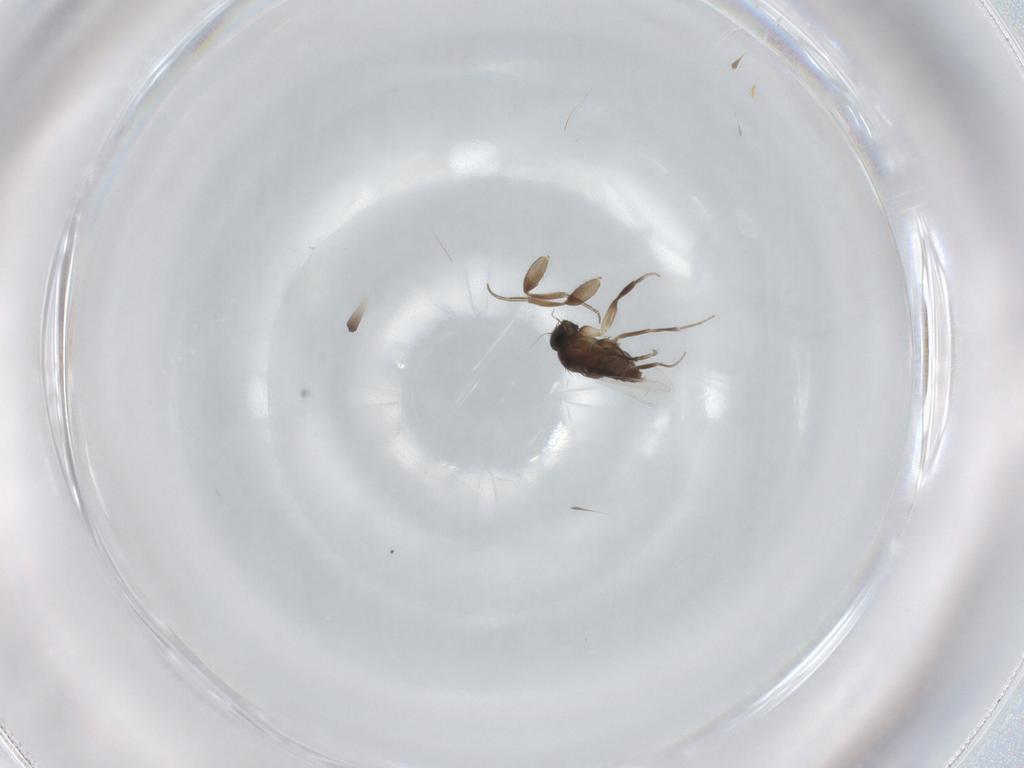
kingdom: Animalia
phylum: Arthropoda
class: Insecta
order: Diptera
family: Phoridae
